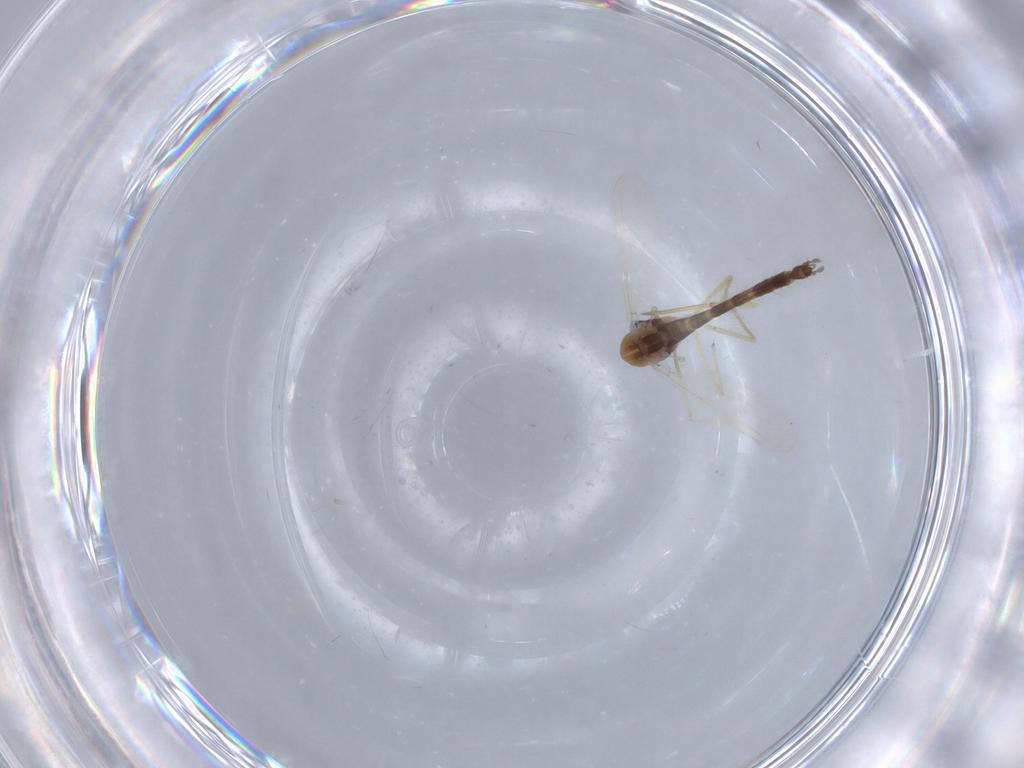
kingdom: Animalia
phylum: Arthropoda
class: Insecta
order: Diptera
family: Chironomidae
